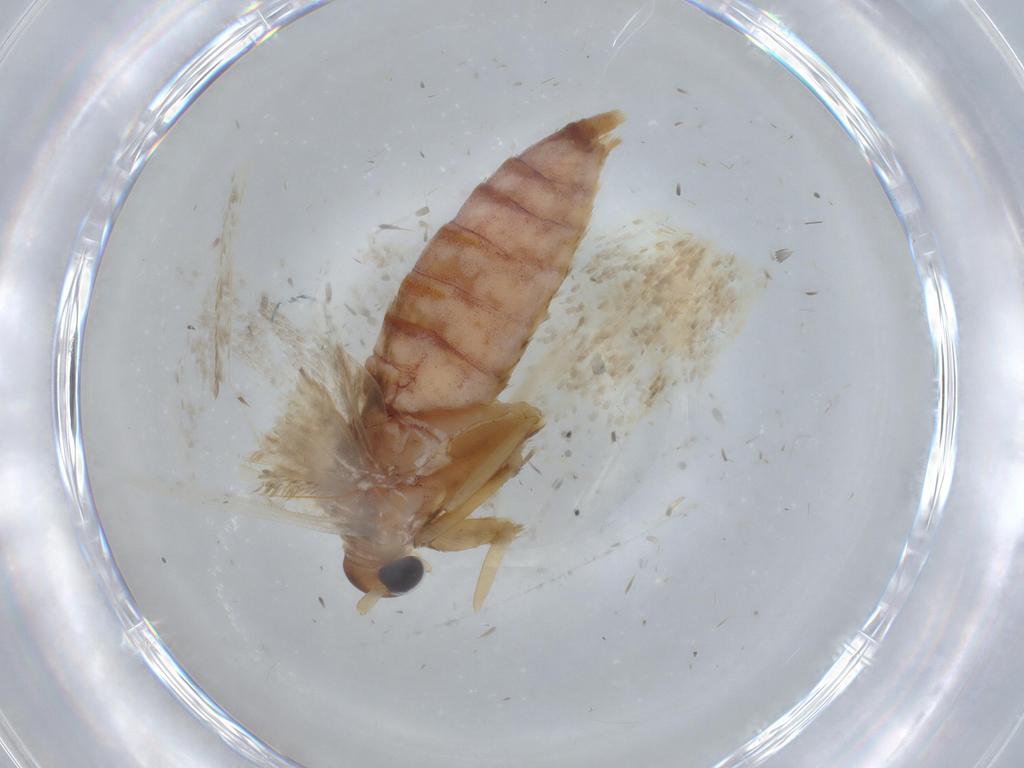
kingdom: Animalia
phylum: Arthropoda
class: Insecta
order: Lepidoptera
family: Blastobasidae
